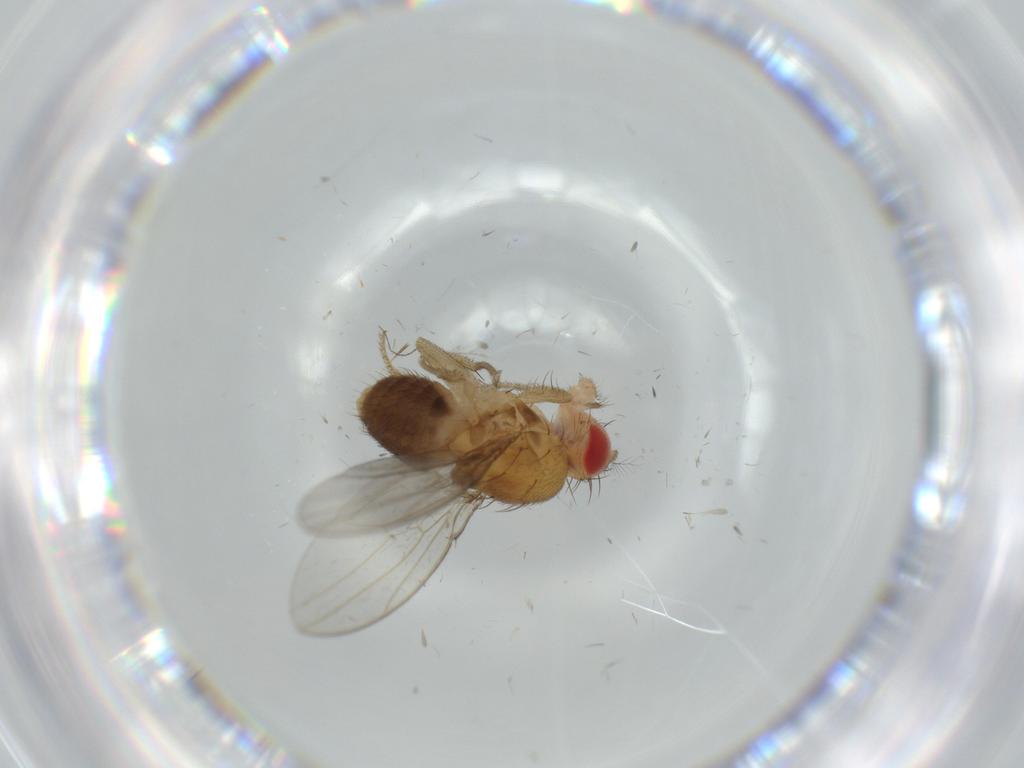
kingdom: Animalia
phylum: Arthropoda
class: Insecta
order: Diptera
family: Drosophilidae
